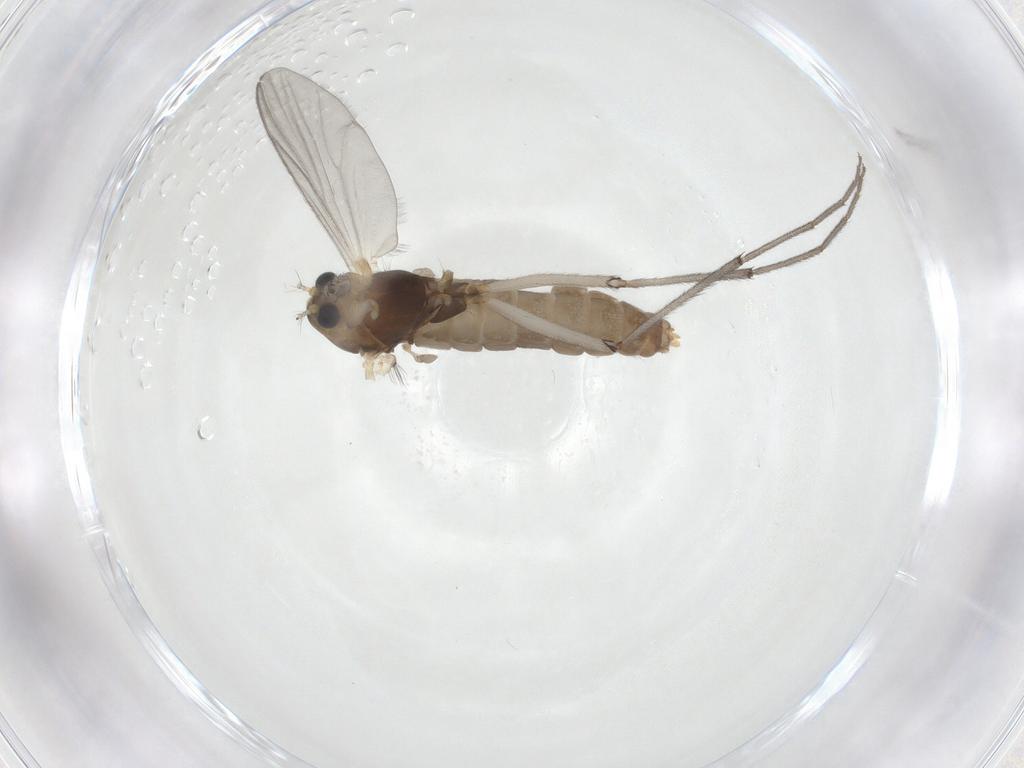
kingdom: Animalia
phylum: Arthropoda
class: Insecta
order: Diptera
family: Chironomidae
